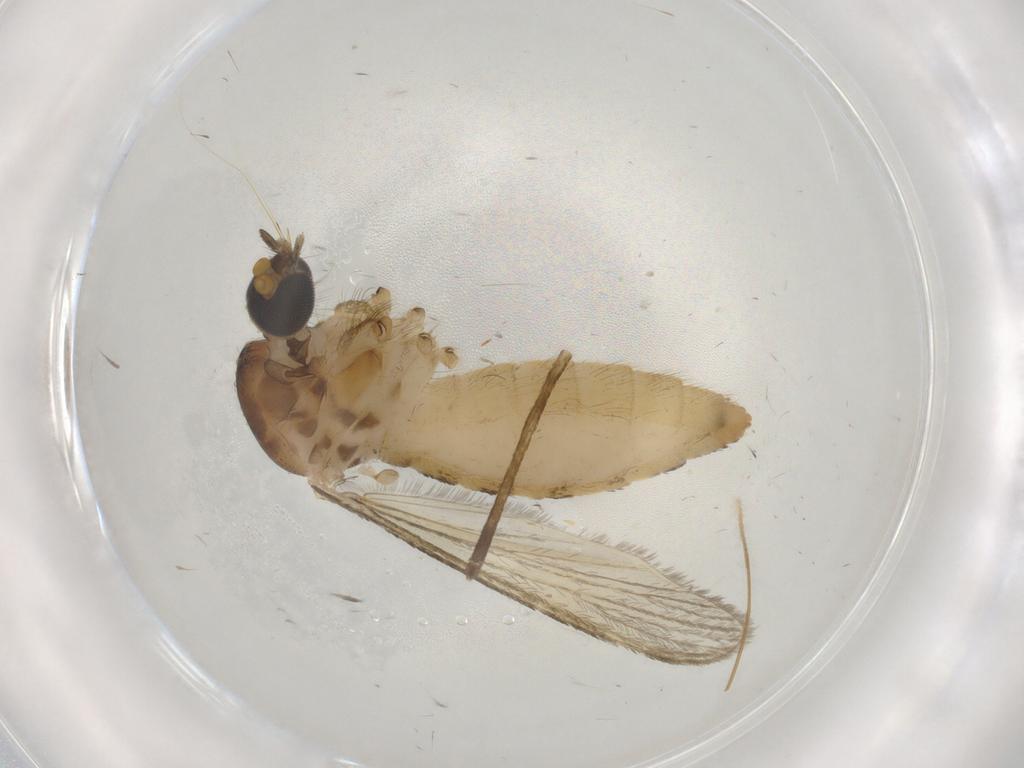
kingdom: Animalia
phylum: Arthropoda
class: Insecta
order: Diptera
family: Culicidae
